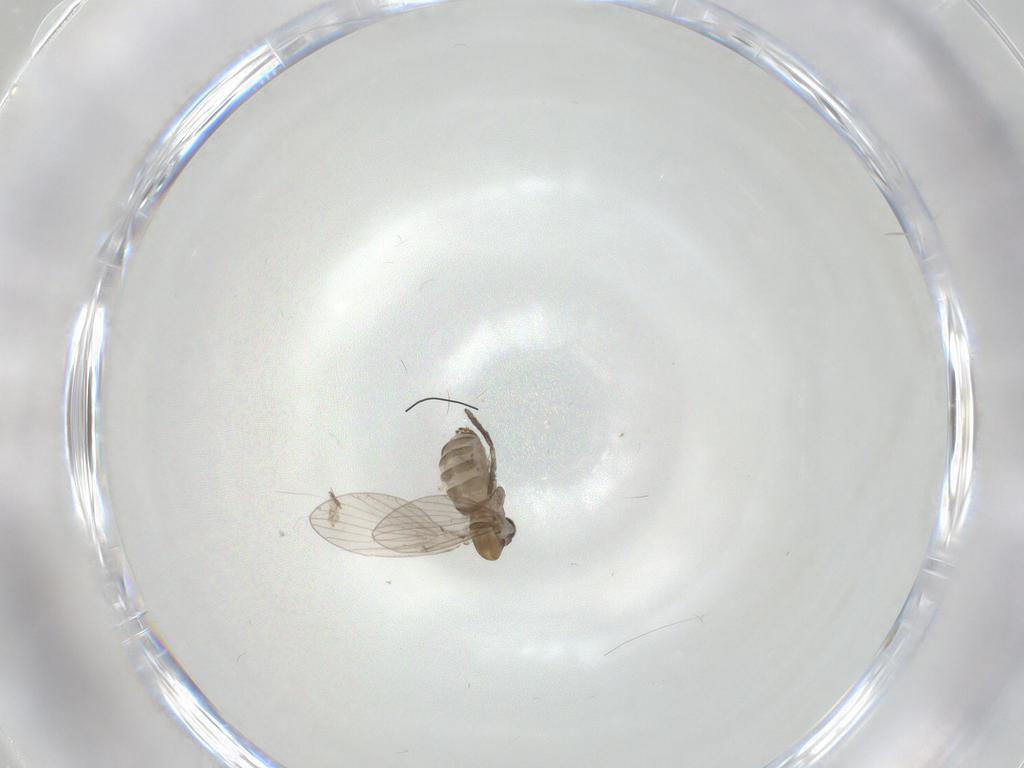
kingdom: Animalia
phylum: Arthropoda
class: Insecta
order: Diptera
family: Psychodidae
